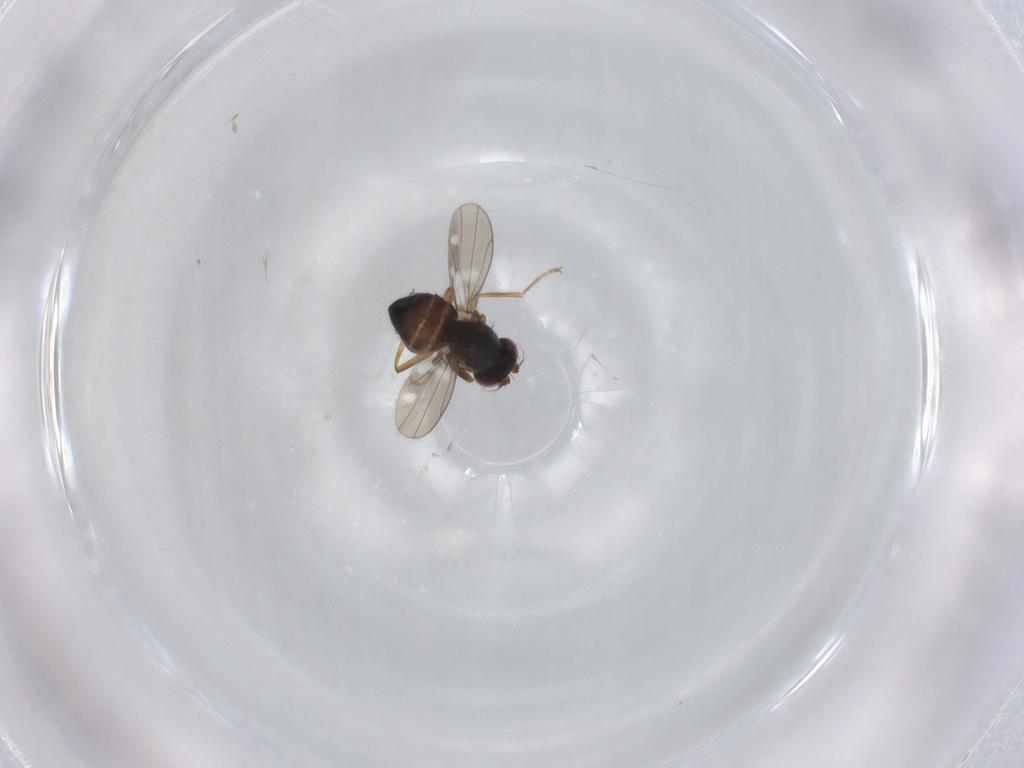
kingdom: Animalia
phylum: Arthropoda
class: Insecta
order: Diptera
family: Ephydridae
